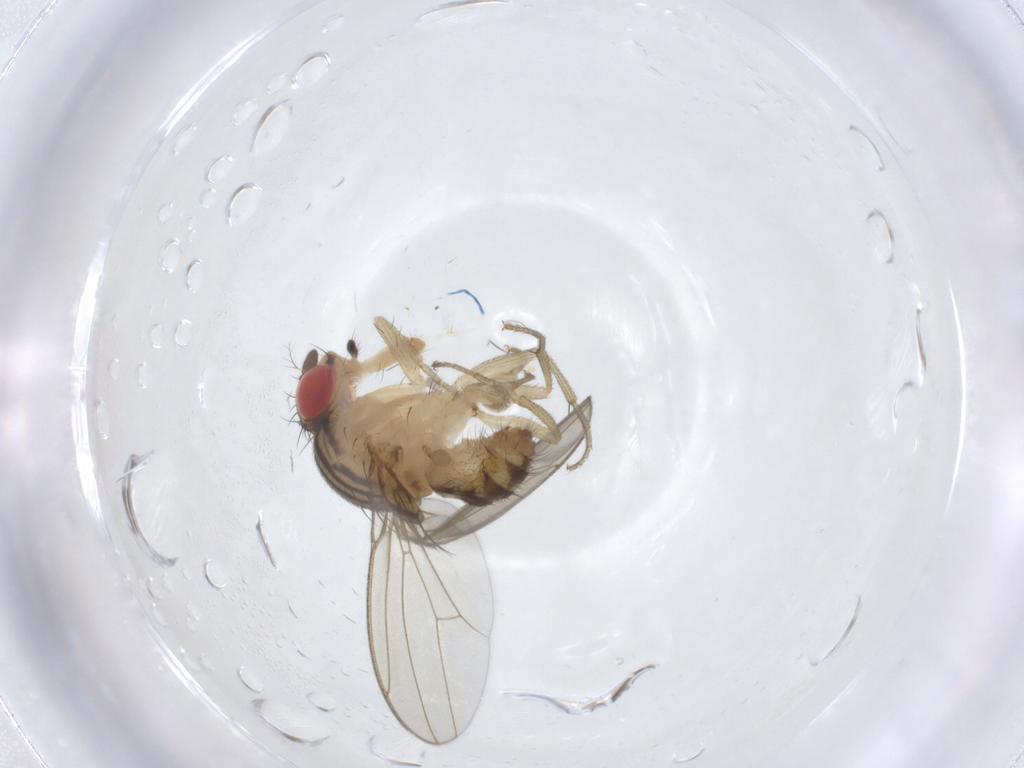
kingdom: Animalia
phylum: Arthropoda
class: Insecta
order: Diptera
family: Drosophilidae
